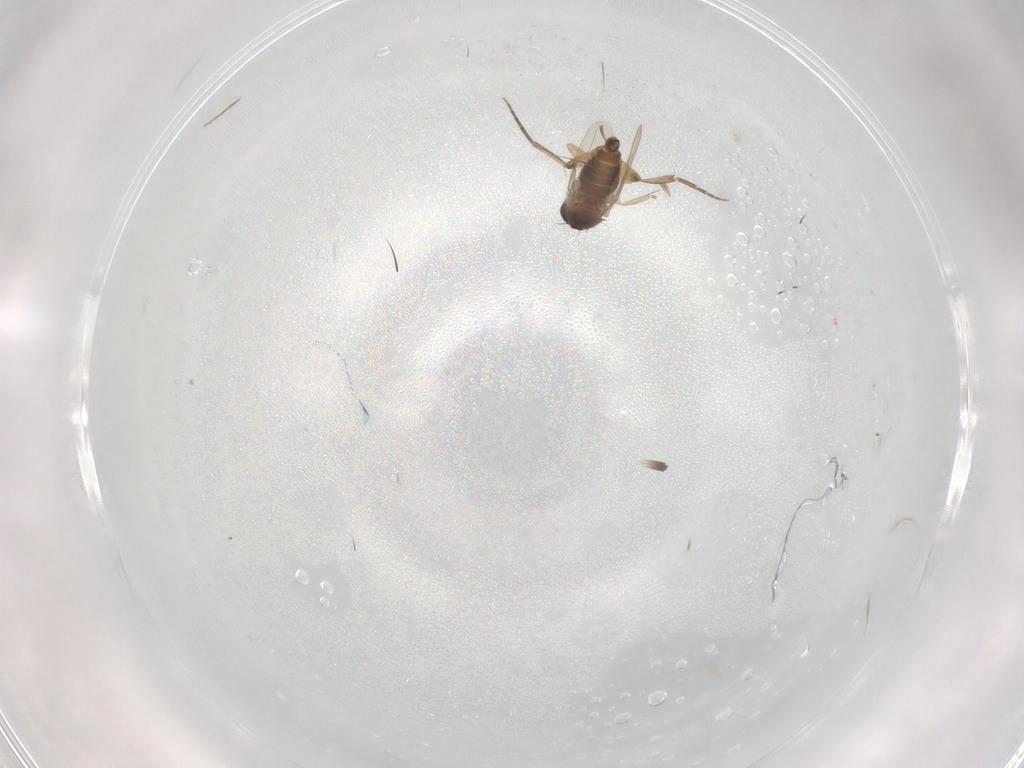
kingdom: Animalia
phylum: Arthropoda
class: Insecta
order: Diptera
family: Phoridae
